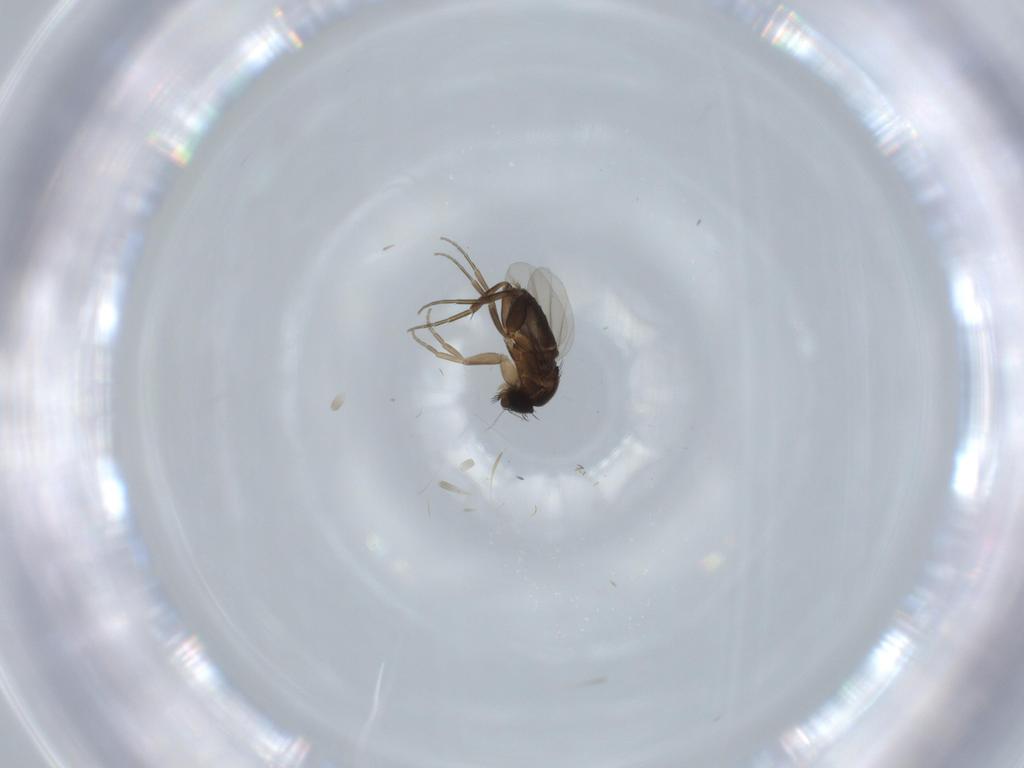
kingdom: Animalia
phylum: Arthropoda
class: Insecta
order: Diptera
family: Phoridae
